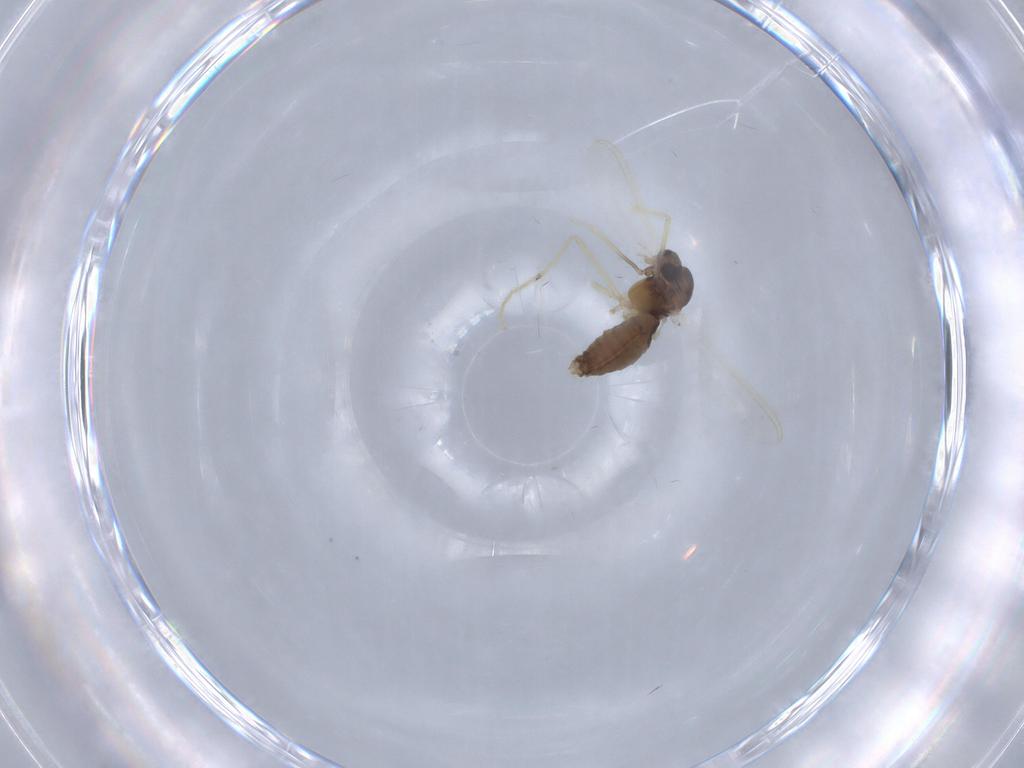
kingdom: Animalia
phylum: Arthropoda
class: Insecta
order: Diptera
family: Chironomidae
